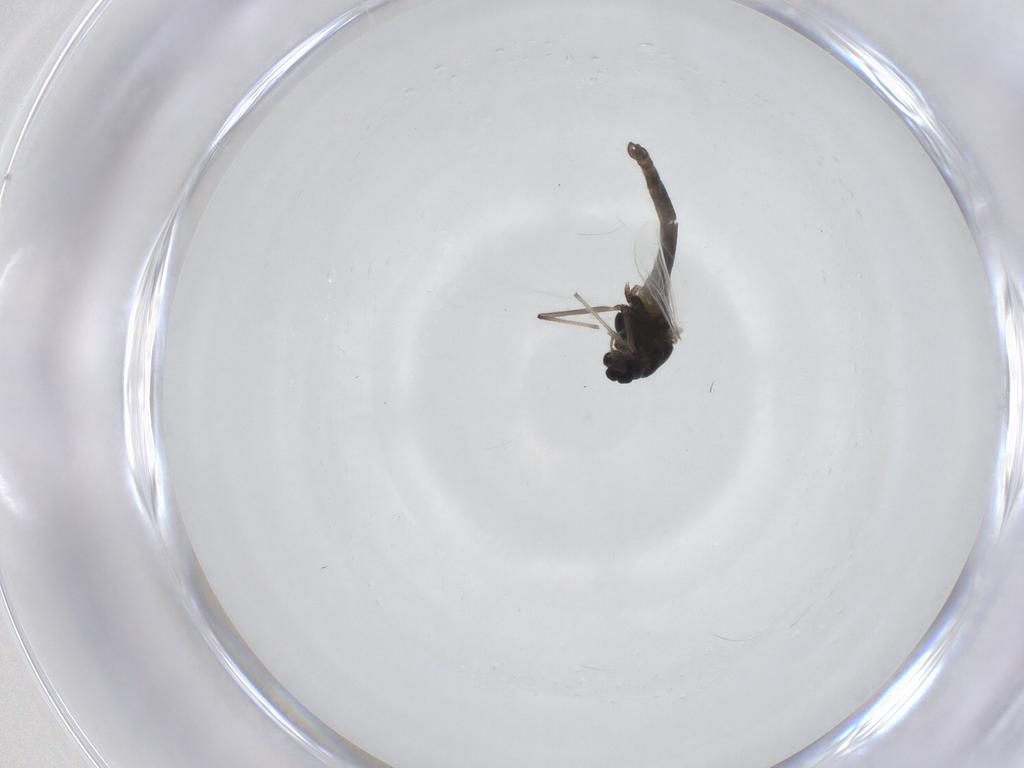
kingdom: Animalia
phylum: Arthropoda
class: Insecta
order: Diptera
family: Chironomidae
